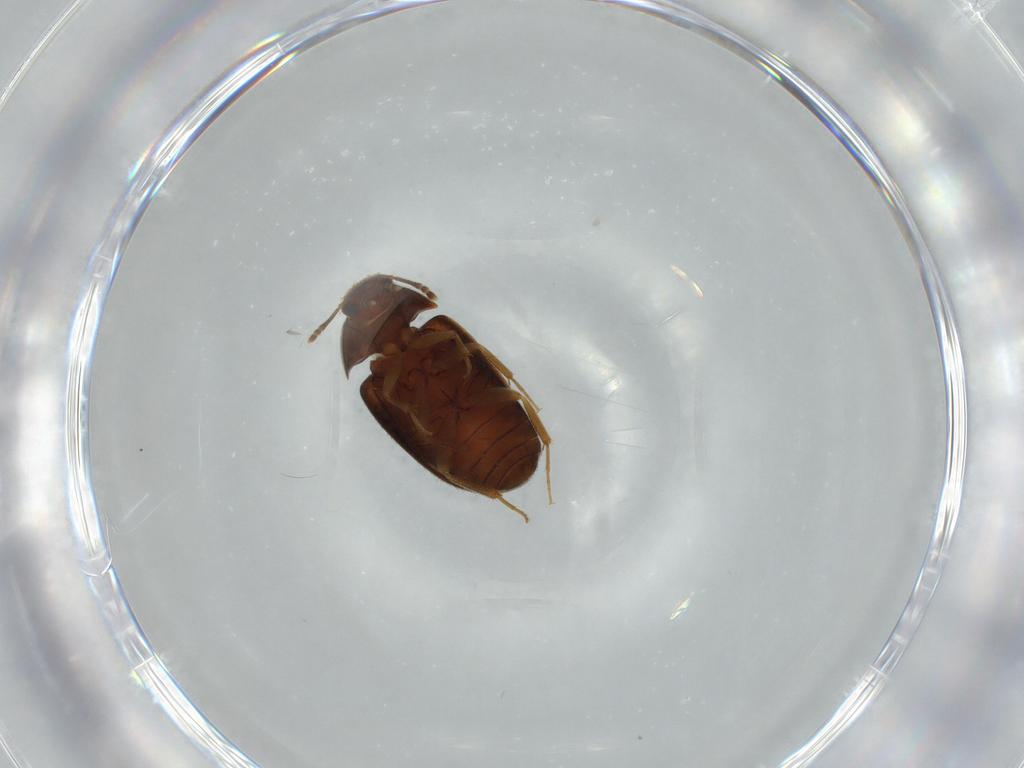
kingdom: Animalia
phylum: Arthropoda
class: Insecta
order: Coleoptera
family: Mycetophagidae
